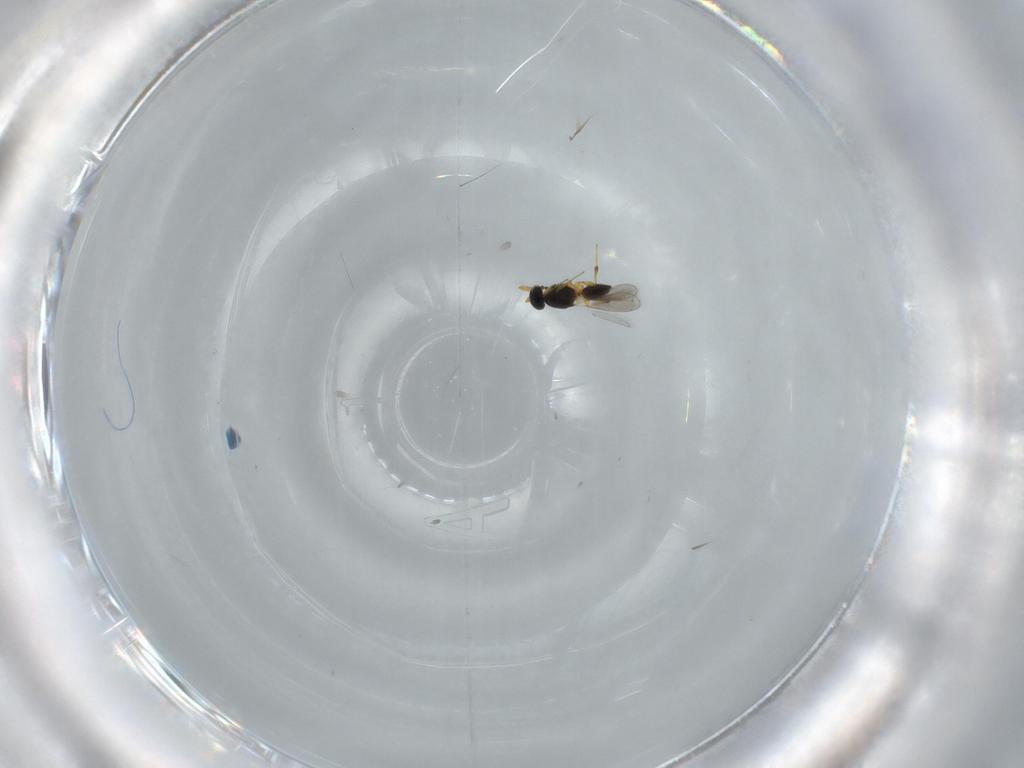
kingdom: Animalia
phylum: Arthropoda
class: Insecta
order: Hymenoptera
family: Platygastridae
